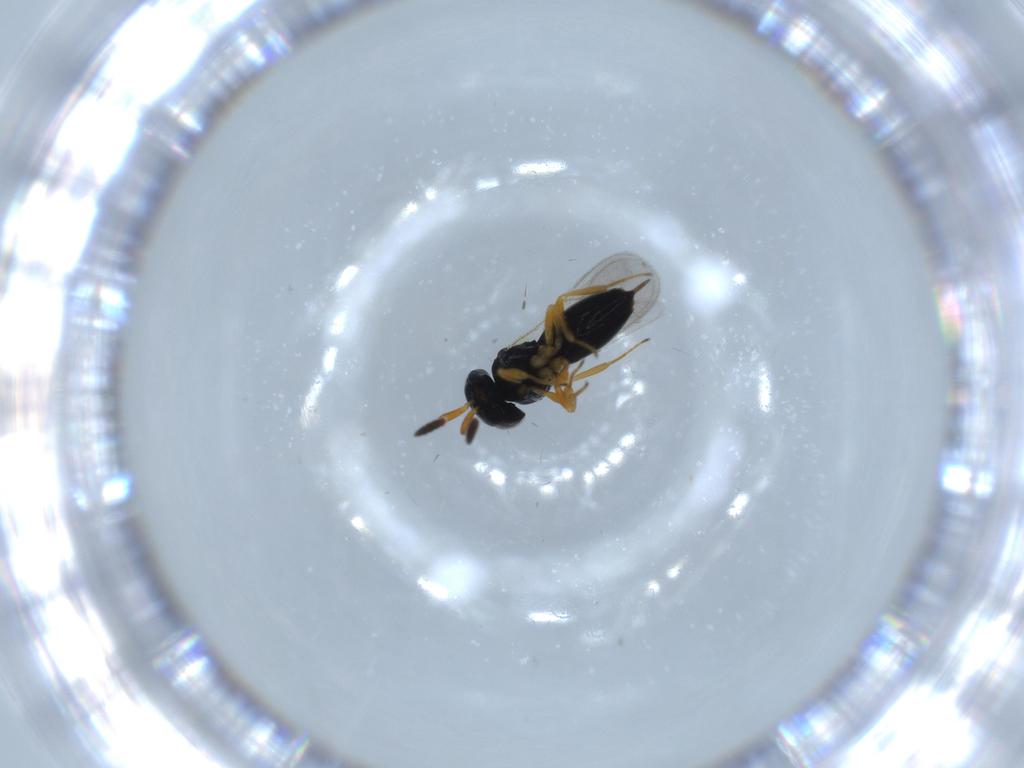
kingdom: Animalia
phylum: Arthropoda
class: Insecta
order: Hymenoptera
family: Scelionidae
